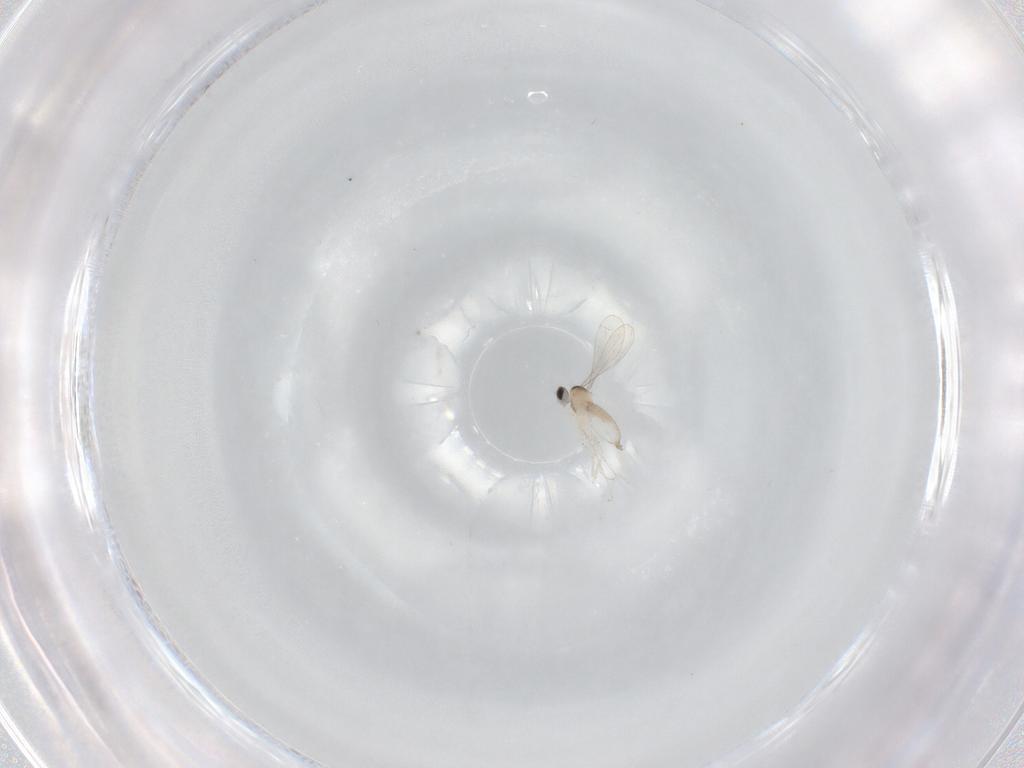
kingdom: Animalia
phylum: Arthropoda
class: Insecta
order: Diptera
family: Cecidomyiidae
